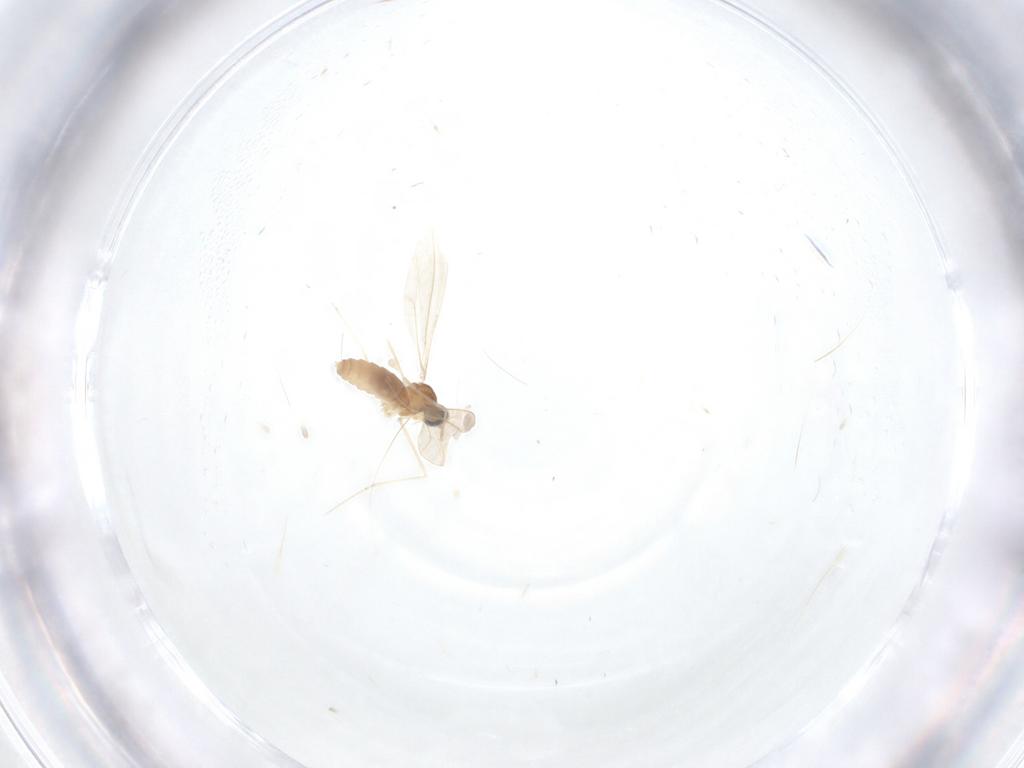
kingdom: Animalia
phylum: Arthropoda
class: Insecta
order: Diptera
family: Cecidomyiidae
